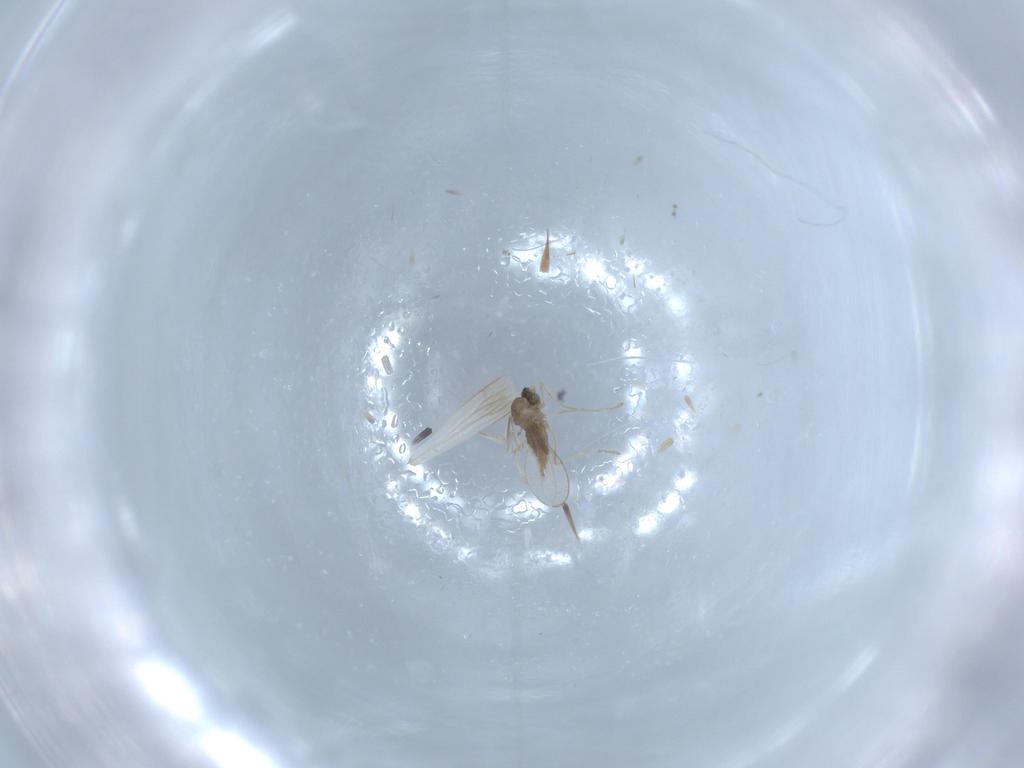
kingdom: Animalia
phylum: Arthropoda
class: Insecta
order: Diptera
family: Cecidomyiidae
